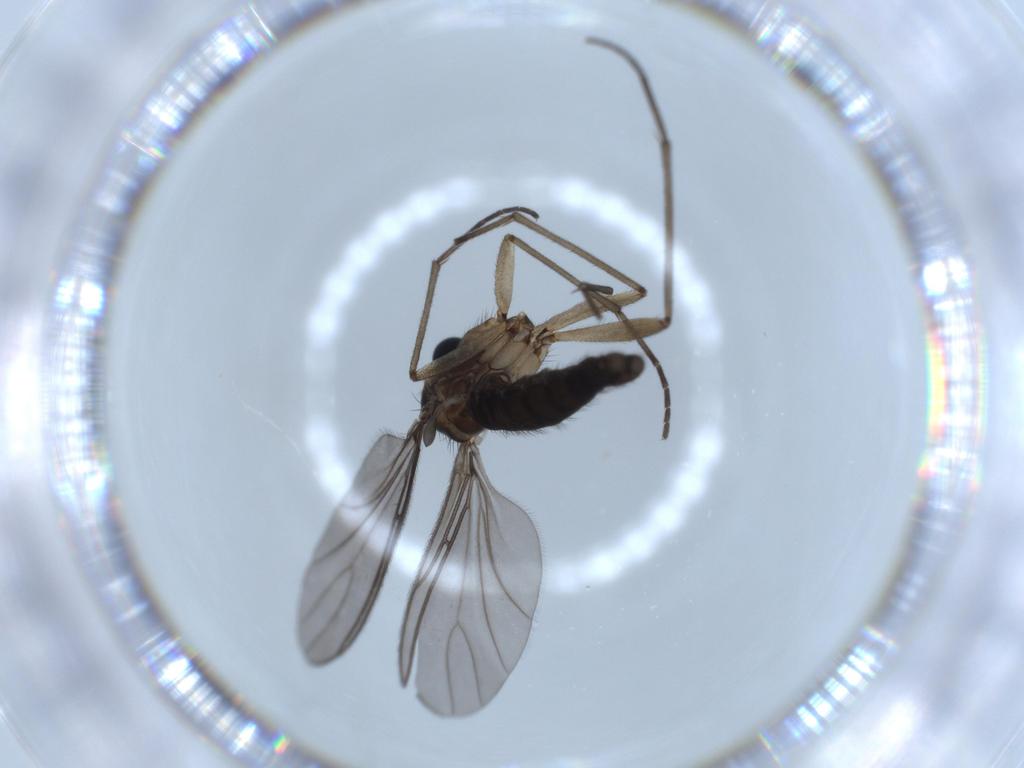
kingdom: Animalia
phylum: Arthropoda
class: Insecta
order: Diptera
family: Sciaridae
